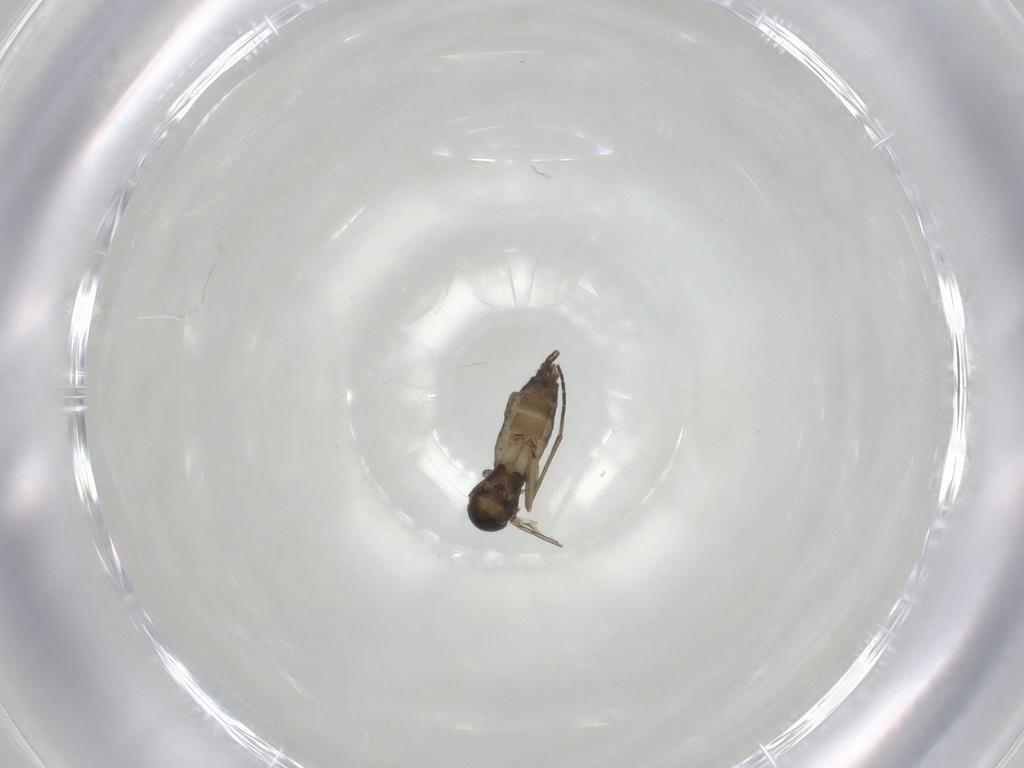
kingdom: Animalia
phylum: Arthropoda
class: Insecta
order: Diptera
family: Sciaridae
